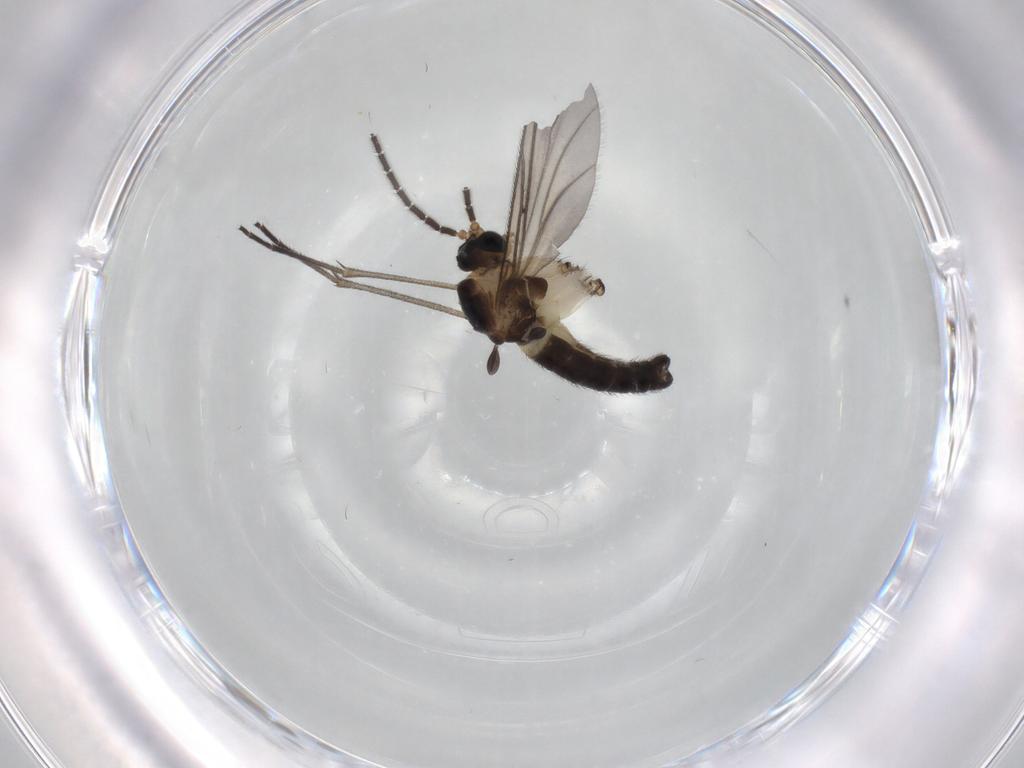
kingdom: Animalia
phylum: Arthropoda
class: Insecta
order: Diptera
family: Sciaridae
